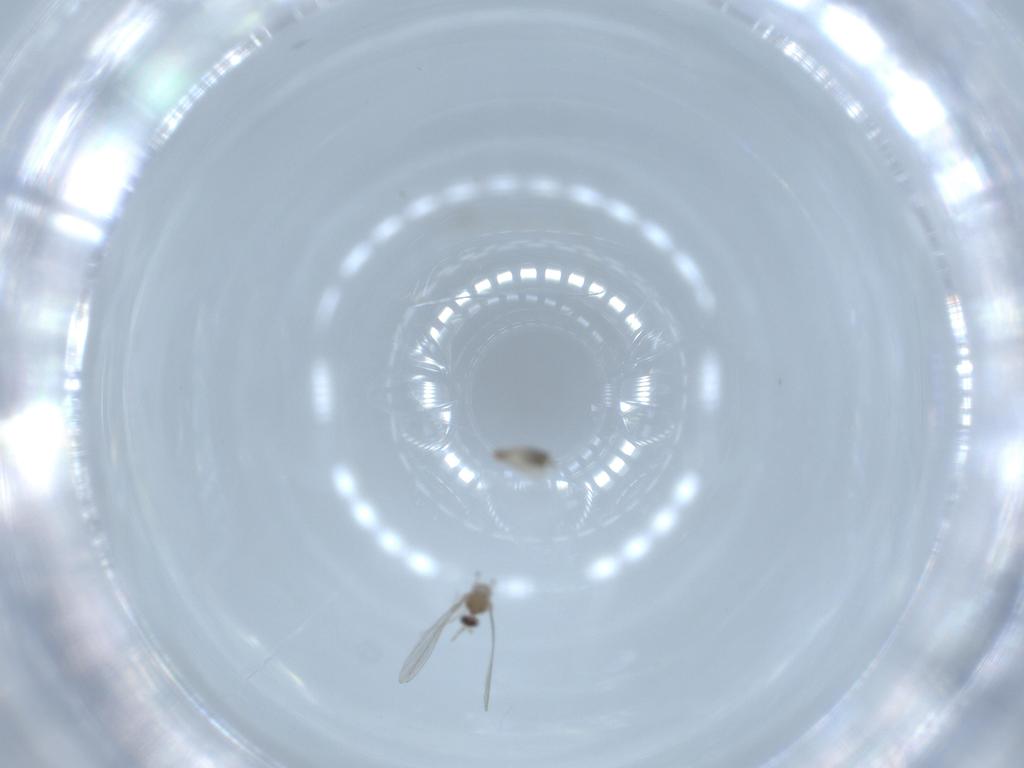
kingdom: Animalia
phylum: Arthropoda
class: Insecta
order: Diptera
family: Cecidomyiidae
